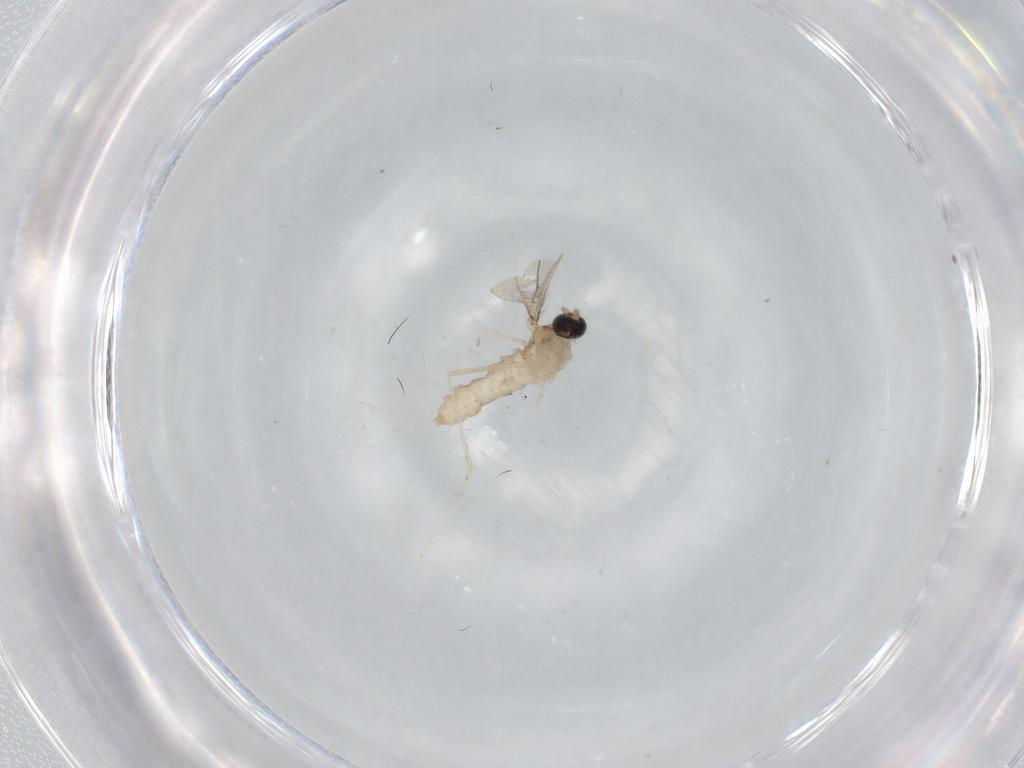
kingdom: Animalia
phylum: Arthropoda
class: Insecta
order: Diptera
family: Cecidomyiidae
